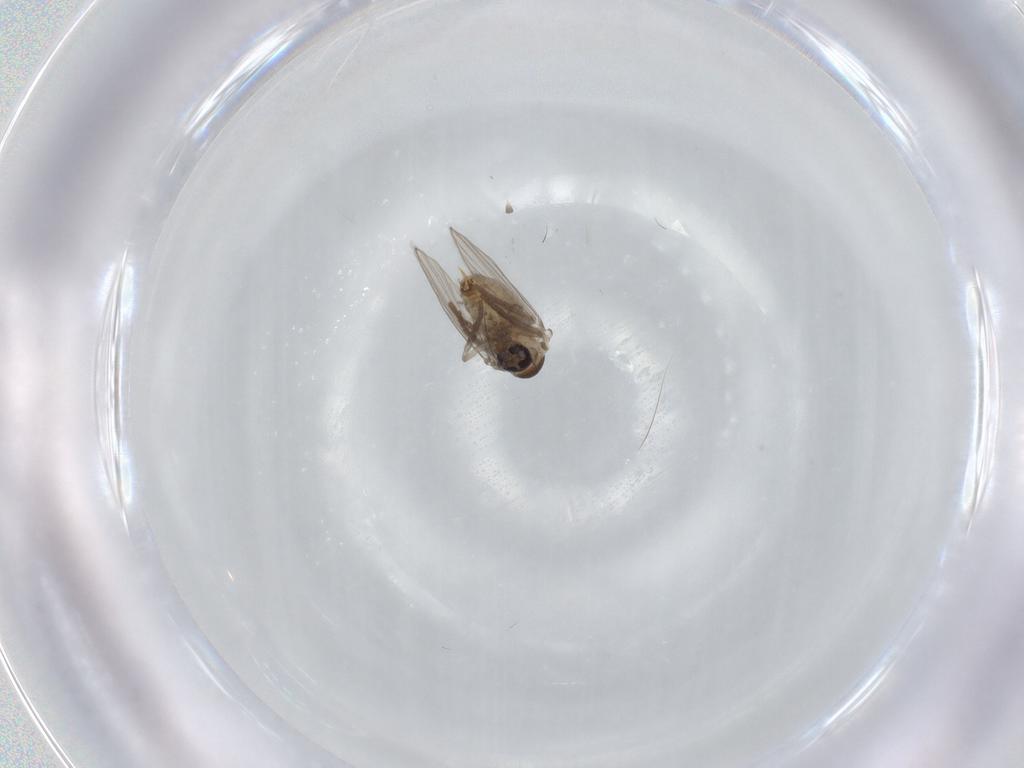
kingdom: Animalia
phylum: Arthropoda
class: Insecta
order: Diptera
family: Psychodidae
